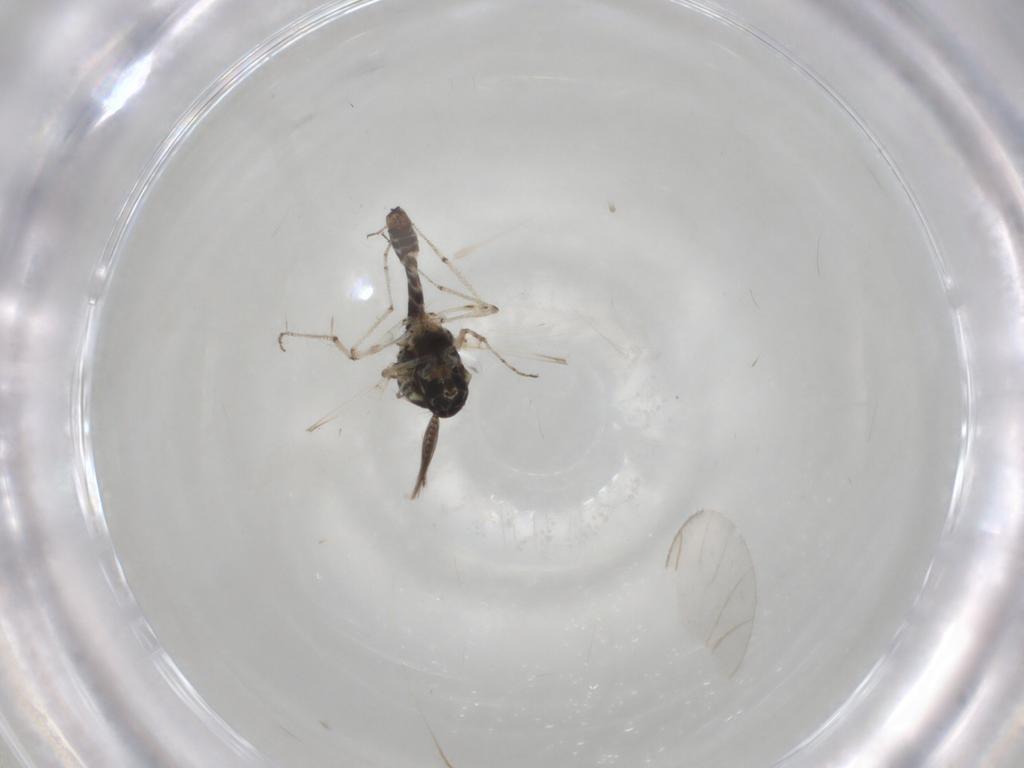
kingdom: Animalia
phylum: Arthropoda
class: Insecta
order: Diptera
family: Ceratopogonidae
